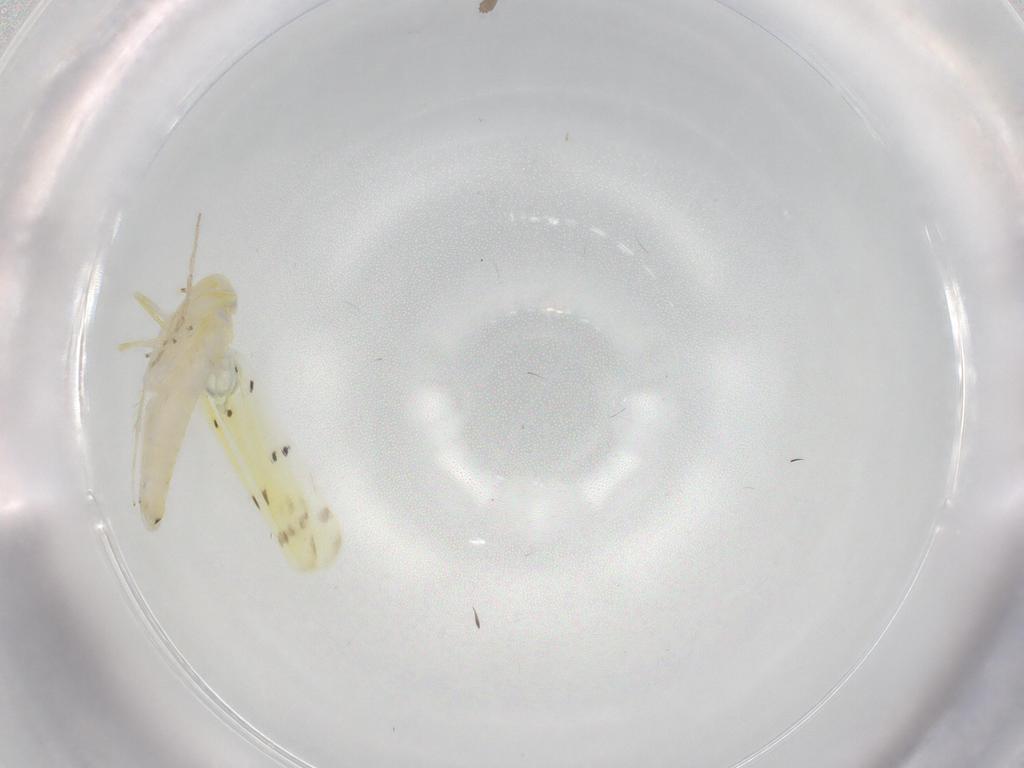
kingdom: Animalia
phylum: Arthropoda
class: Insecta
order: Hemiptera
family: Cicadellidae
